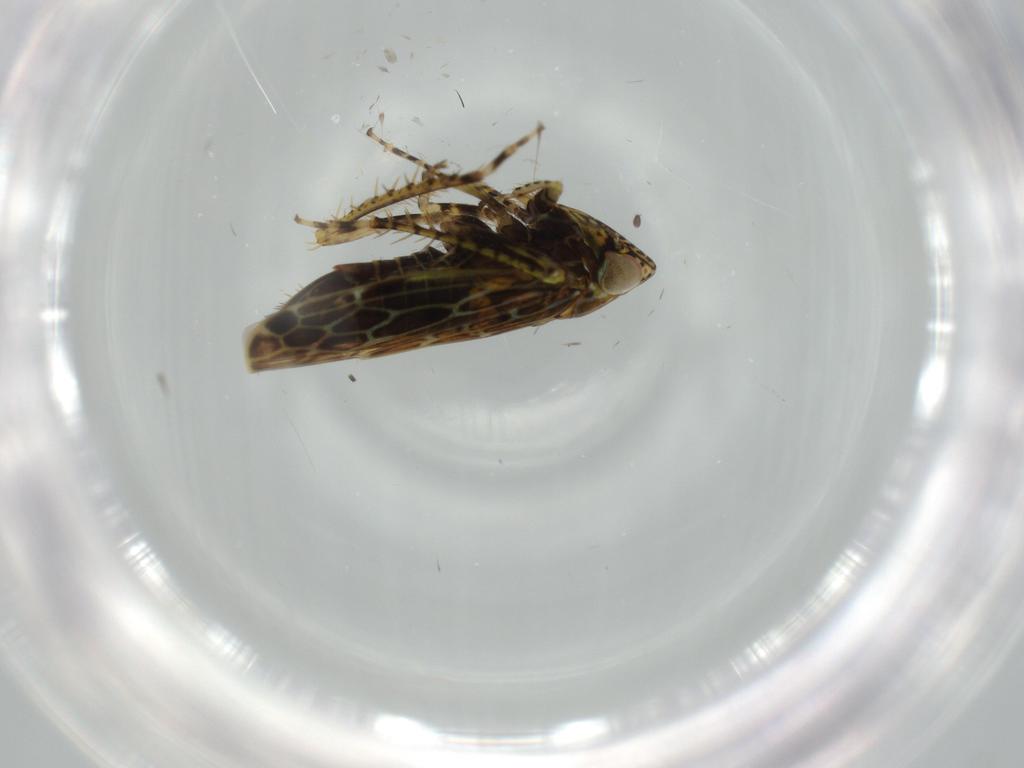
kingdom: Animalia
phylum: Arthropoda
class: Insecta
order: Hemiptera
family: Cicadellidae
